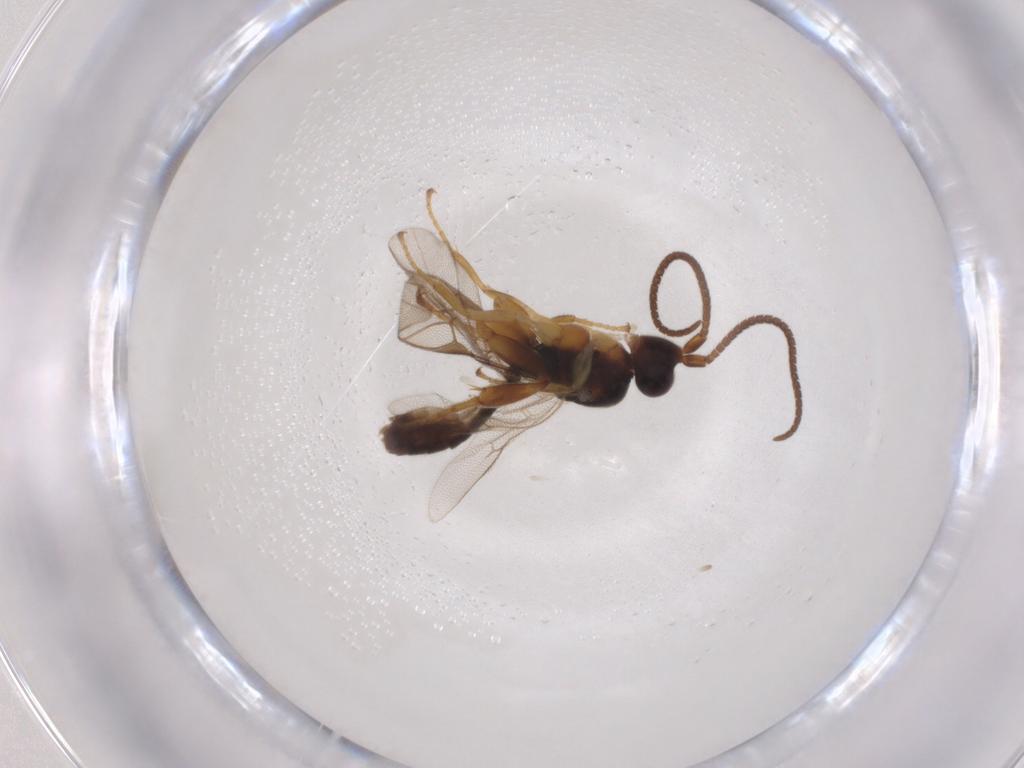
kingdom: Animalia
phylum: Arthropoda
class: Insecta
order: Hymenoptera
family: Ichneumonidae
